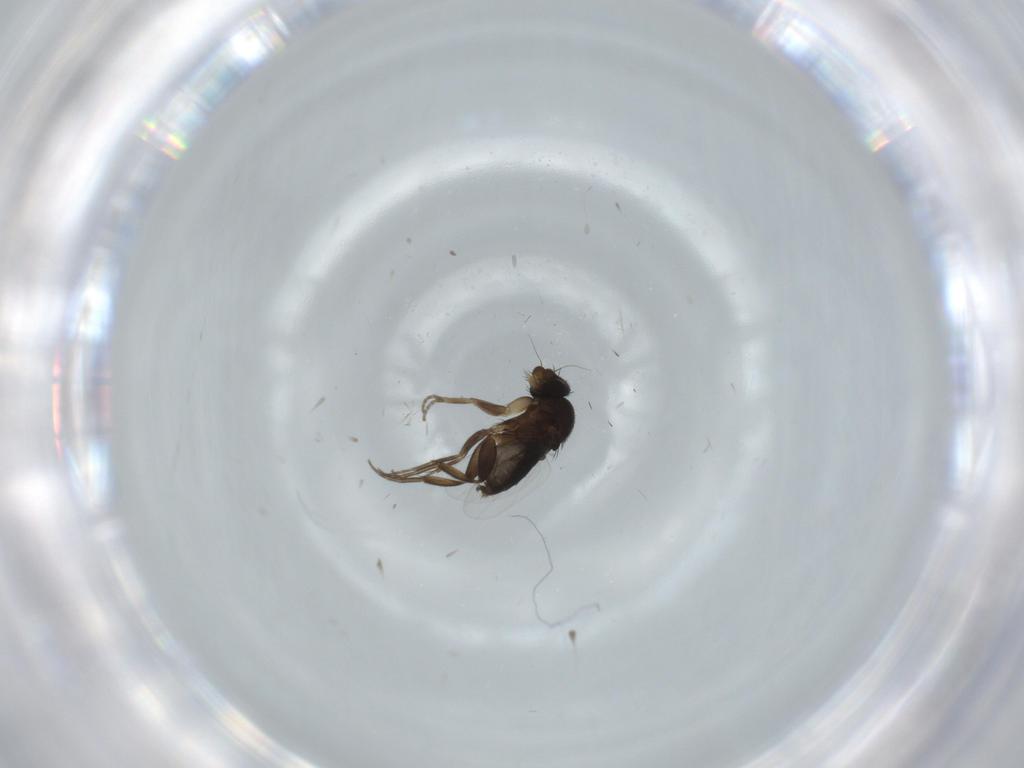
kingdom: Animalia
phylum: Arthropoda
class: Insecta
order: Diptera
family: Phoridae
